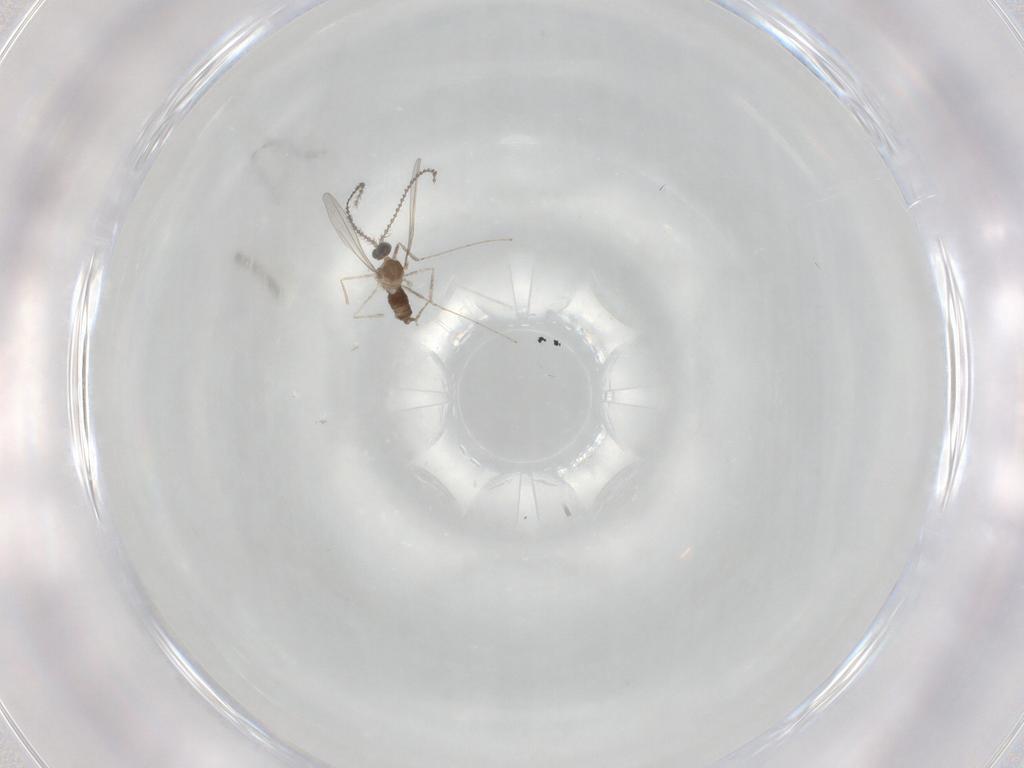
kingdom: Animalia
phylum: Arthropoda
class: Insecta
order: Diptera
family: Cecidomyiidae
